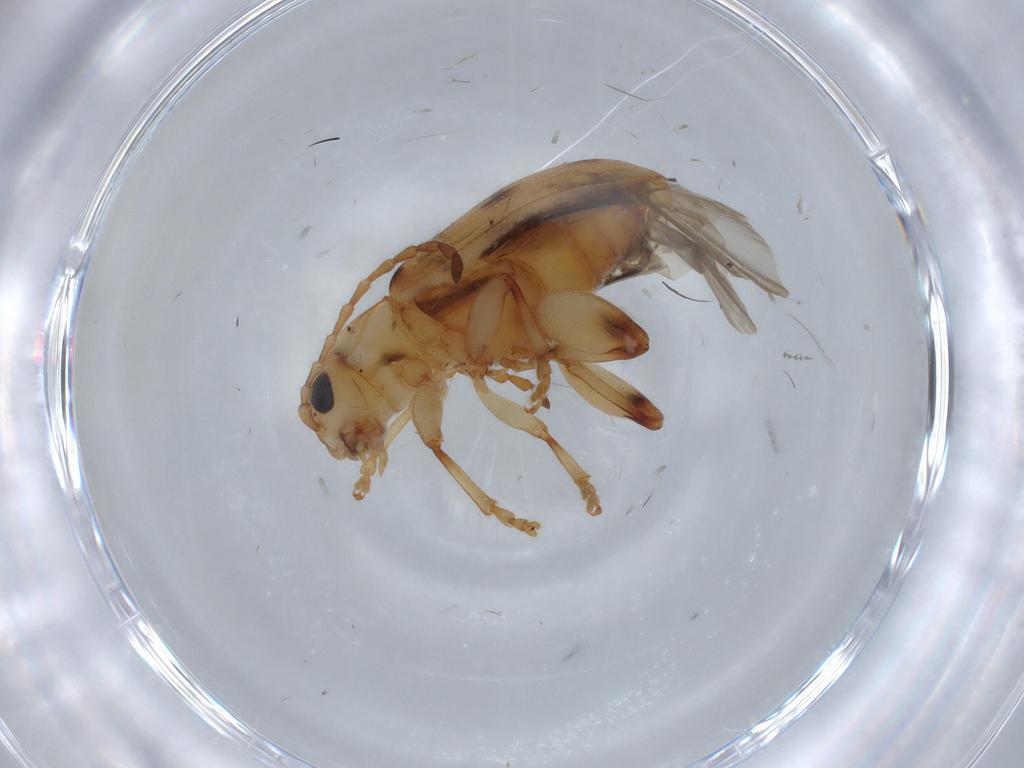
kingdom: Animalia
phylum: Arthropoda
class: Insecta
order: Coleoptera
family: Chrysomelidae
